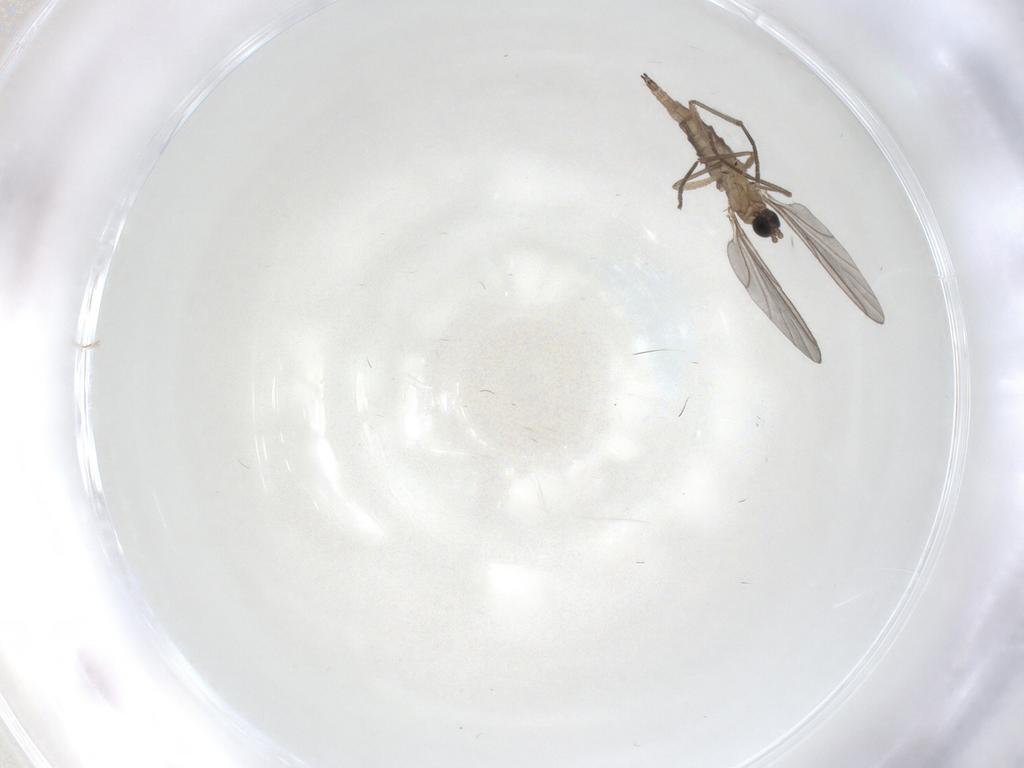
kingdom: Animalia
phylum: Arthropoda
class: Insecta
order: Diptera
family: Sciaridae
